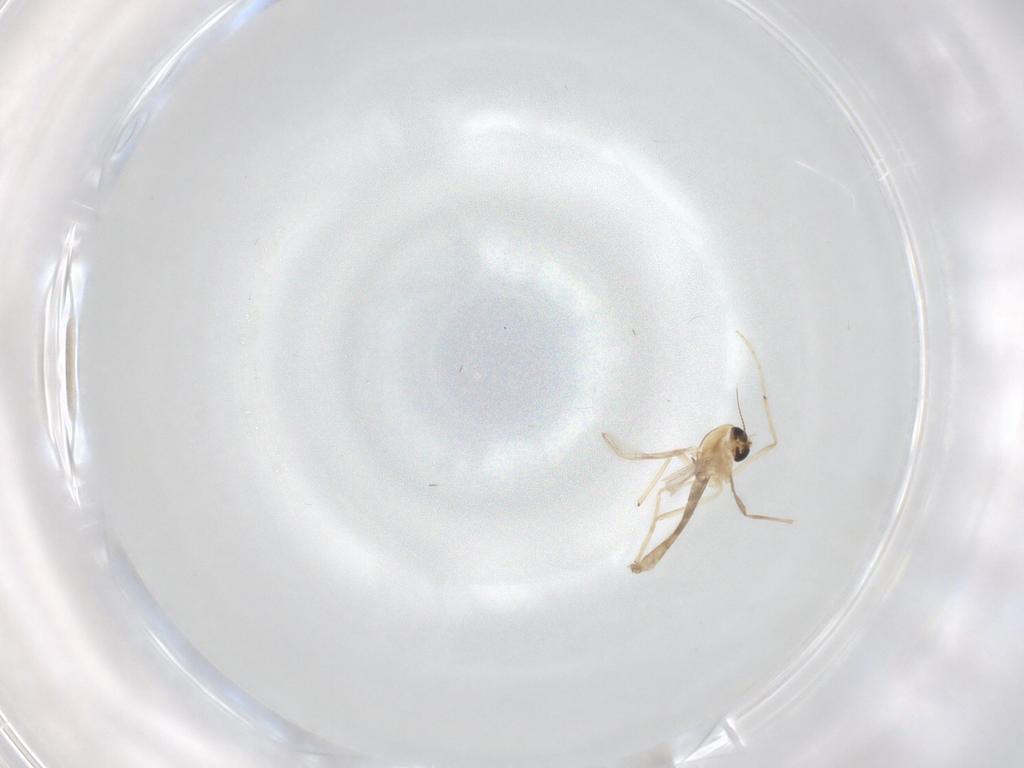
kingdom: Animalia
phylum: Arthropoda
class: Insecta
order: Diptera
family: Chironomidae
